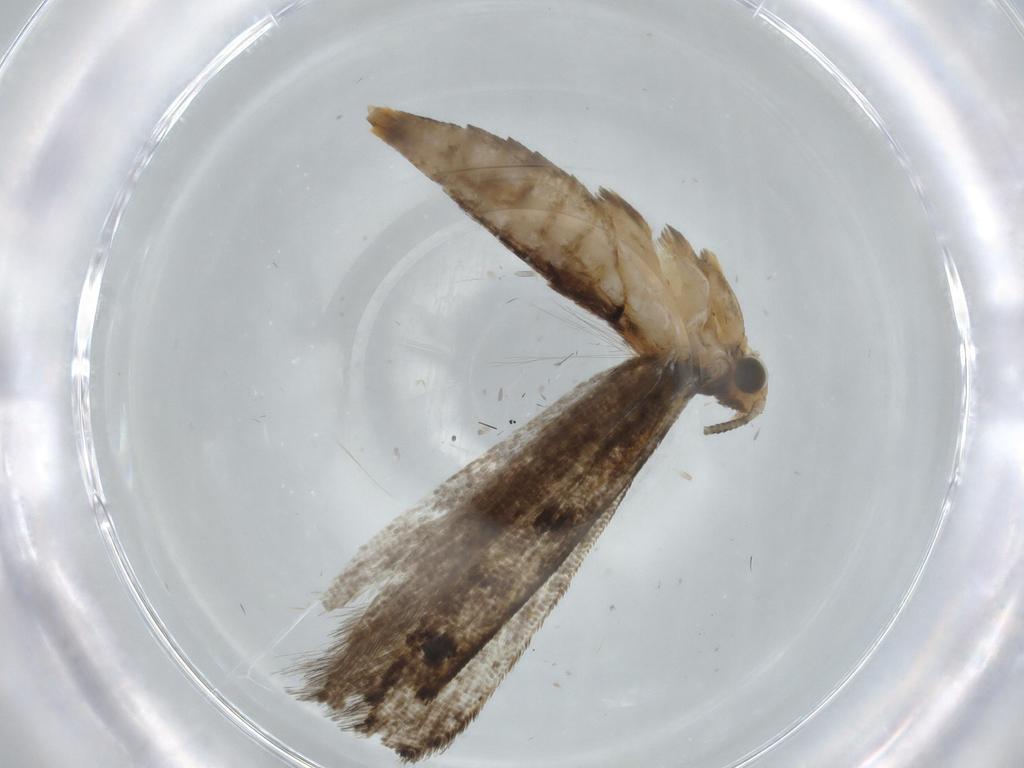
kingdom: Animalia
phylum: Arthropoda
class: Insecta
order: Lepidoptera
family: Tineidae
